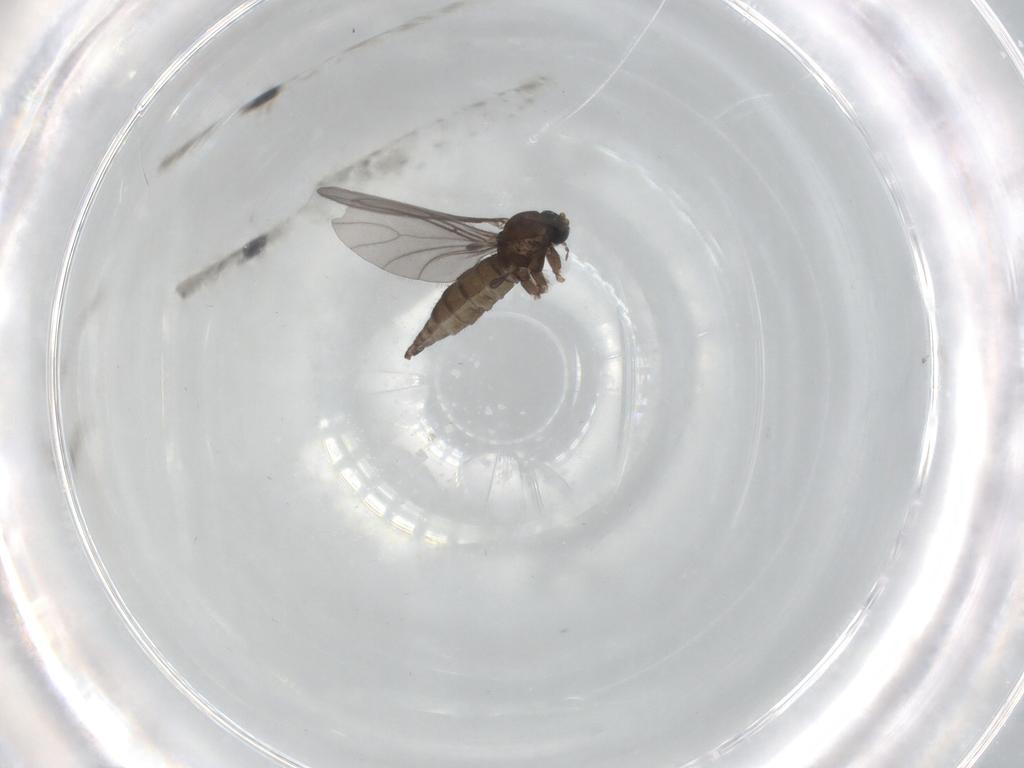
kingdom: Animalia
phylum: Arthropoda
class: Insecta
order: Diptera
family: Sciaridae
